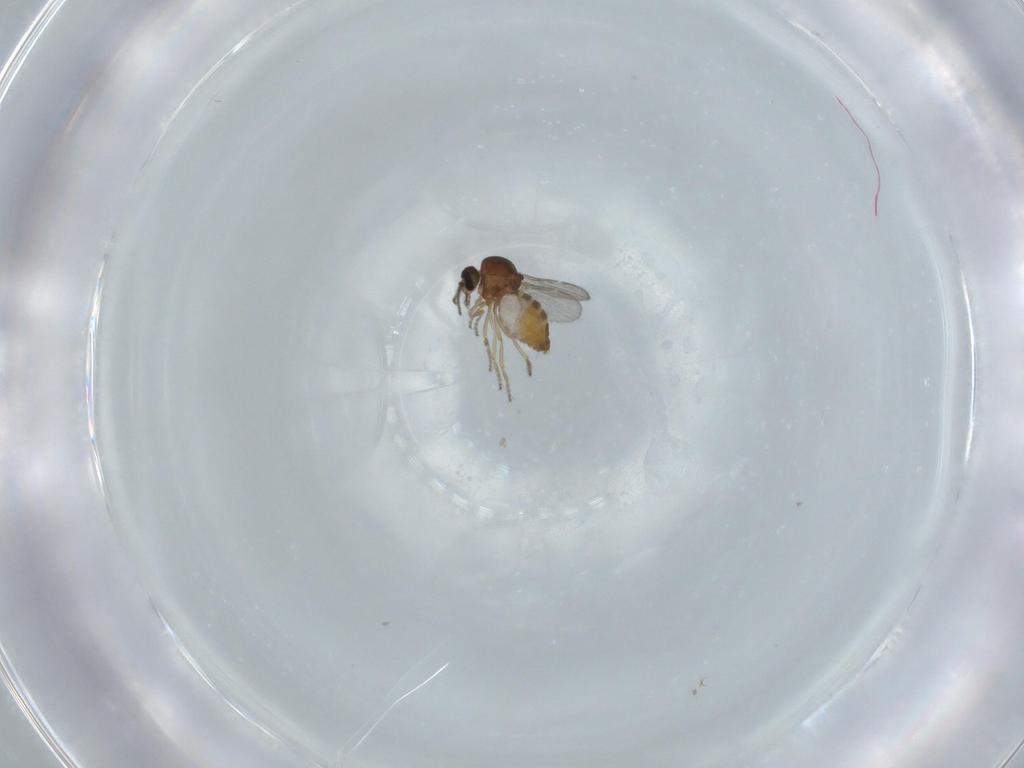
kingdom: Animalia
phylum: Arthropoda
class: Insecta
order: Diptera
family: Ceratopogonidae
